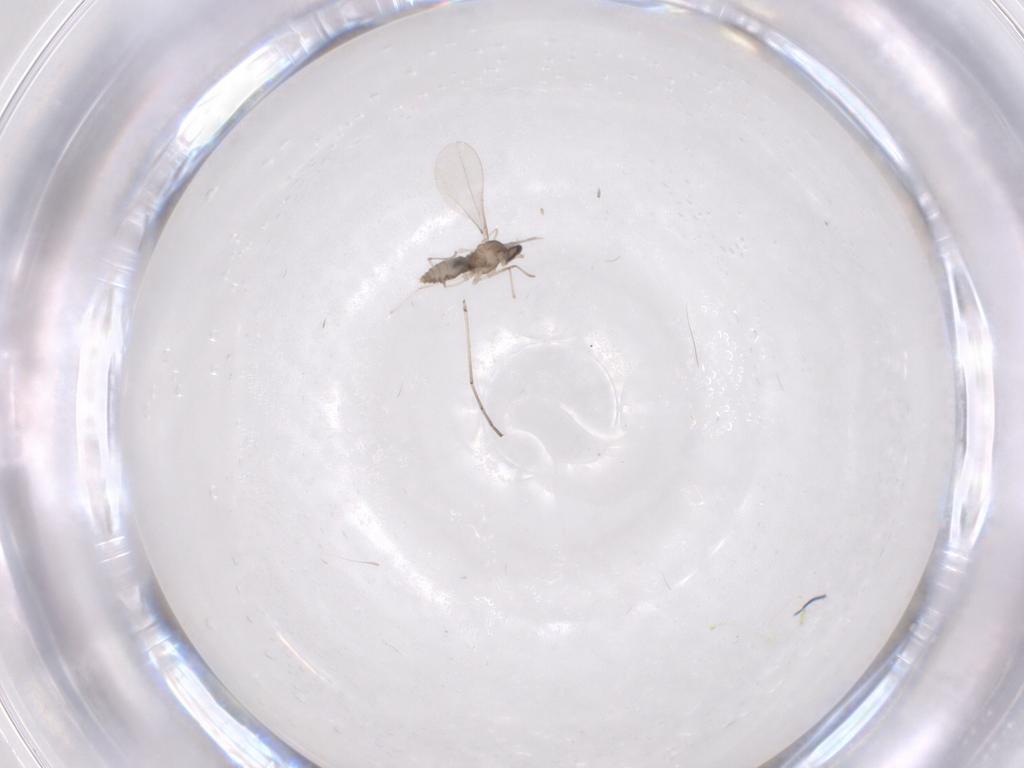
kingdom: Animalia
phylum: Arthropoda
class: Insecta
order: Diptera
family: Cecidomyiidae
